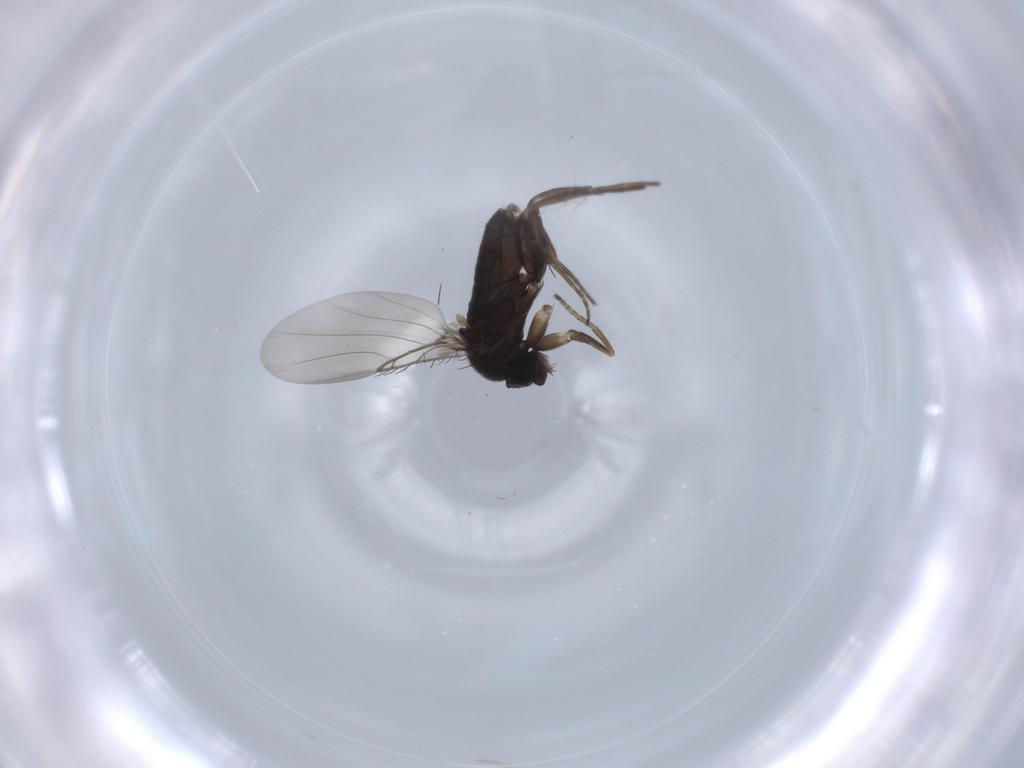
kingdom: Animalia
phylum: Arthropoda
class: Insecta
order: Diptera
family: Phoridae
